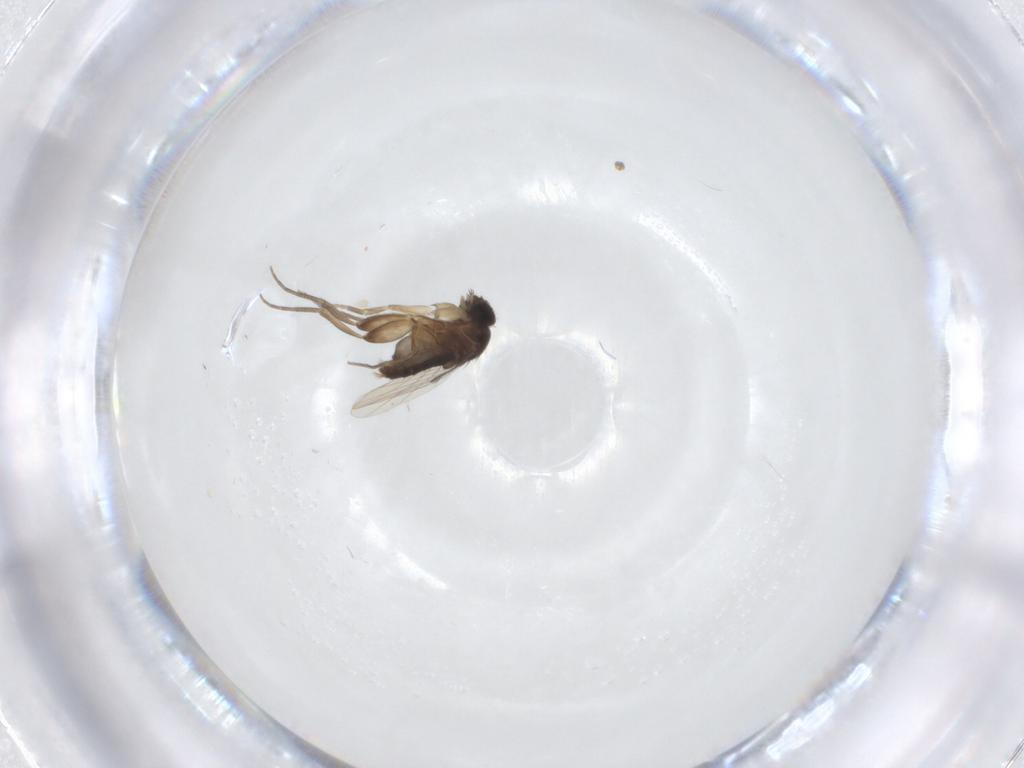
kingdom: Animalia
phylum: Arthropoda
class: Insecta
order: Diptera
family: Phoridae
